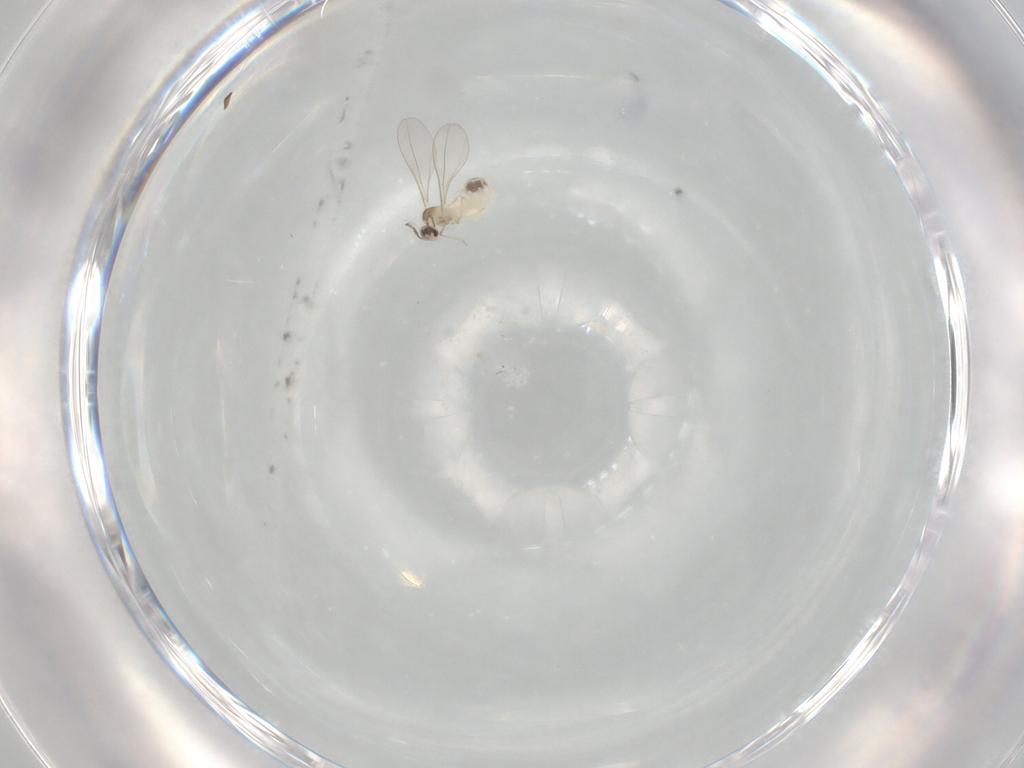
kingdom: Animalia
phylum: Arthropoda
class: Insecta
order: Diptera
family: Cecidomyiidae
